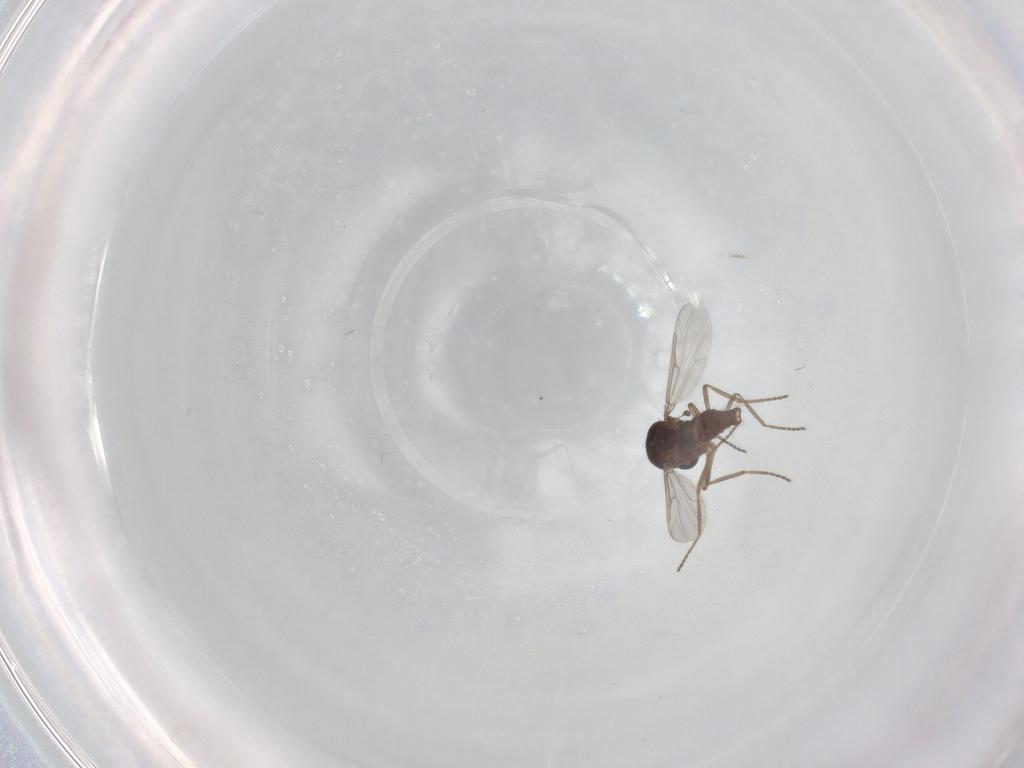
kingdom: Animalia
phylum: Arthropoda
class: Insecta
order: Diptera
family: Ceratopogonidae
